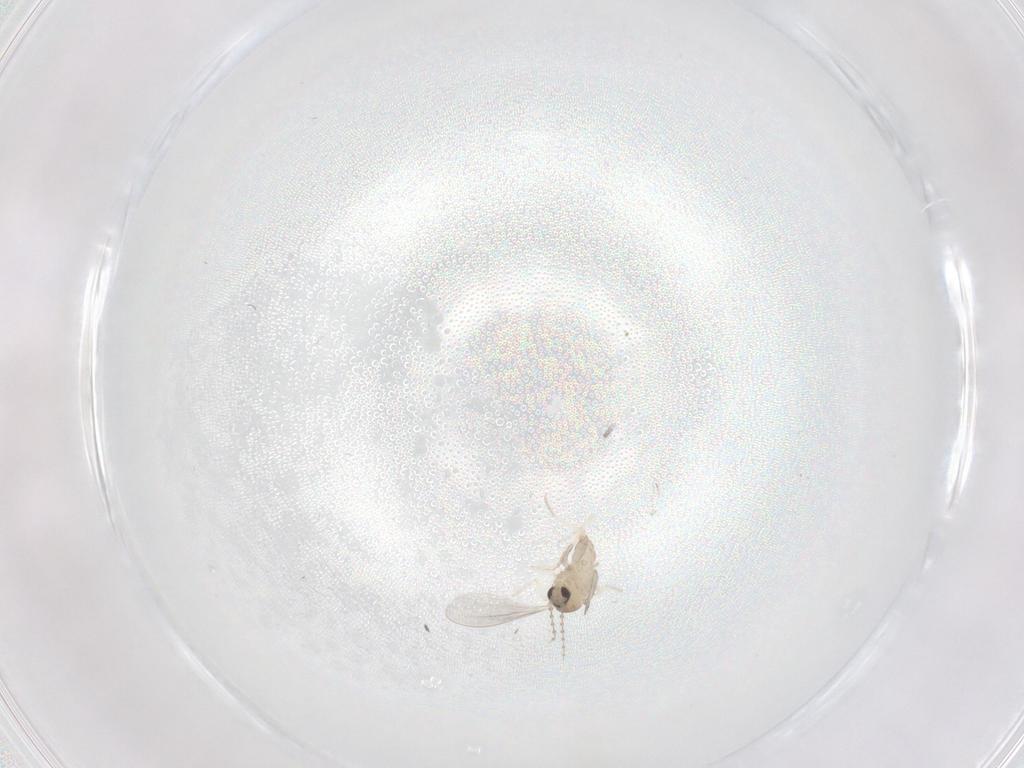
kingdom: Animalia
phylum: Arthropoda
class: Insecta
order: Diptera
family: Cecidomyiidae
